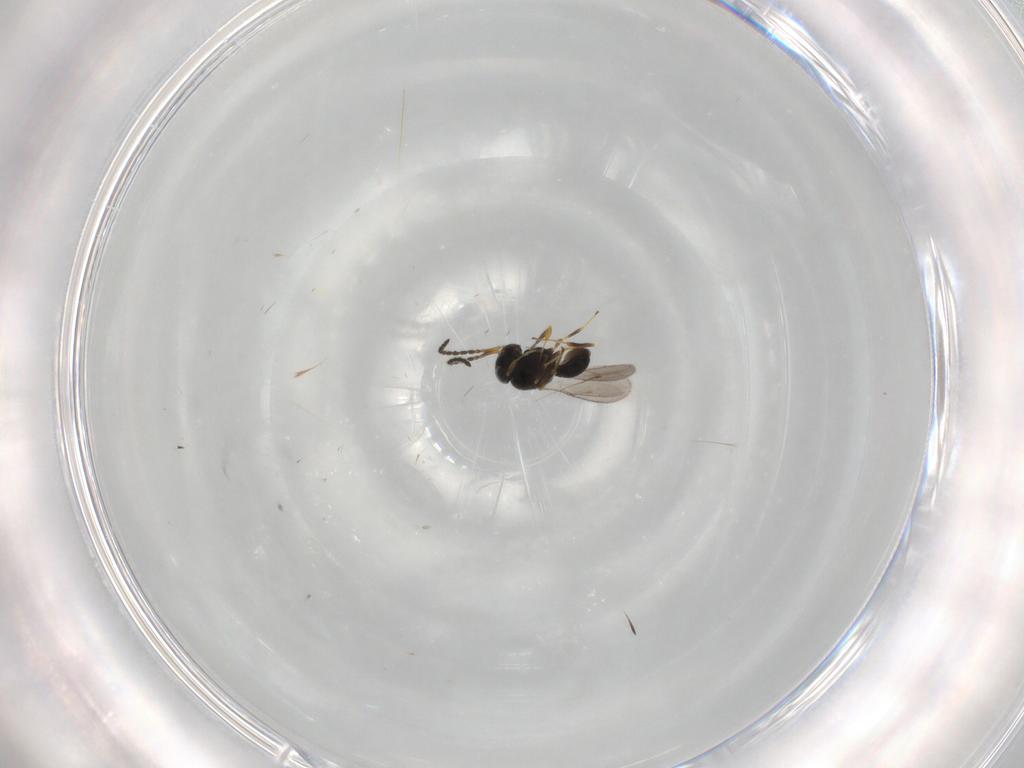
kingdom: Animalia
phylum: Arthropoda
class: Insecta
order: Hymenoptera
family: Scelionidae
